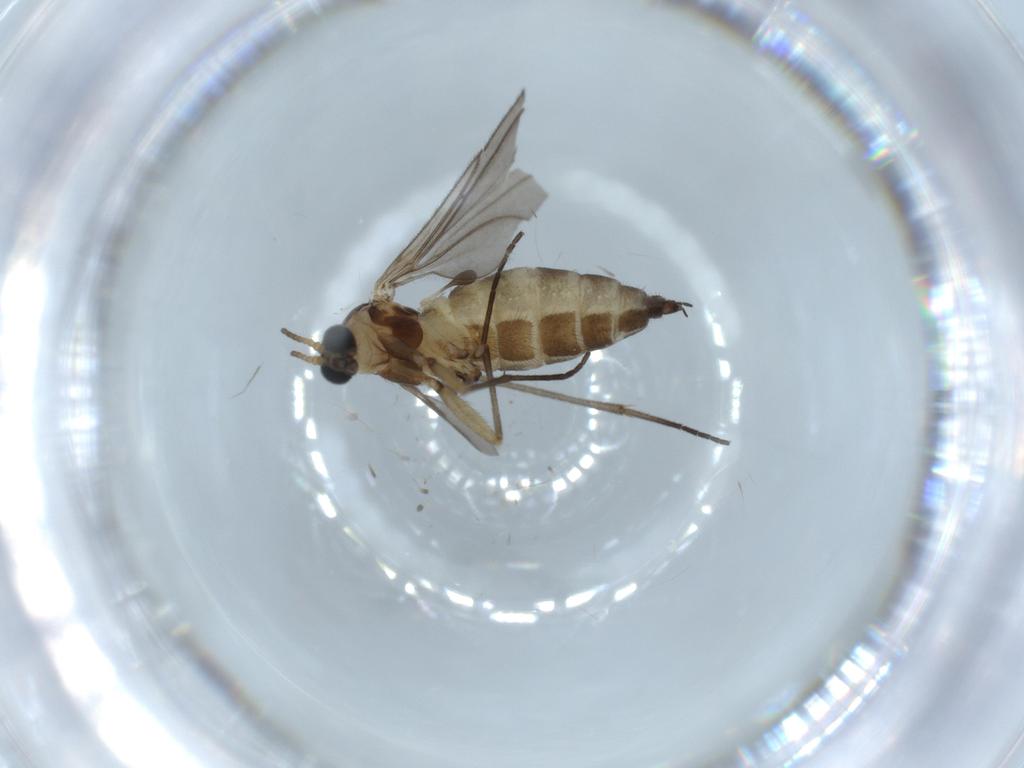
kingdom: Animalia
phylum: Arthropoda
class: Insecta
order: Diptera
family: Sciaridae
